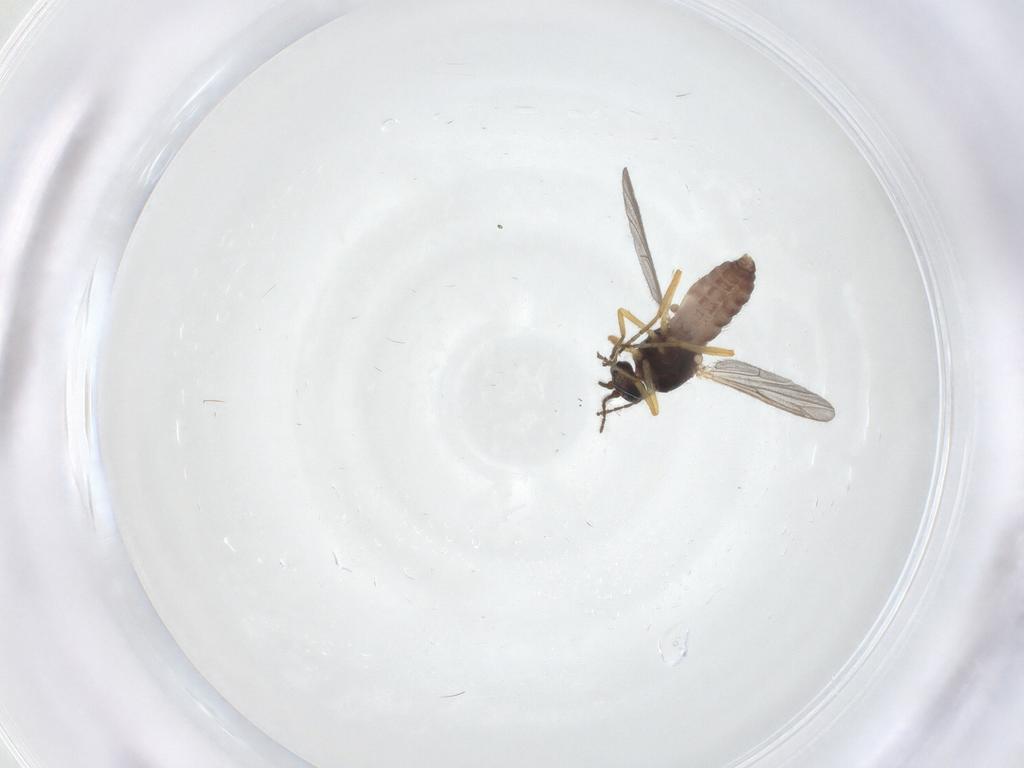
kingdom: Animalia
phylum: Arthropoda
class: Insecta
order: Diptera
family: Ceratopogonidae
